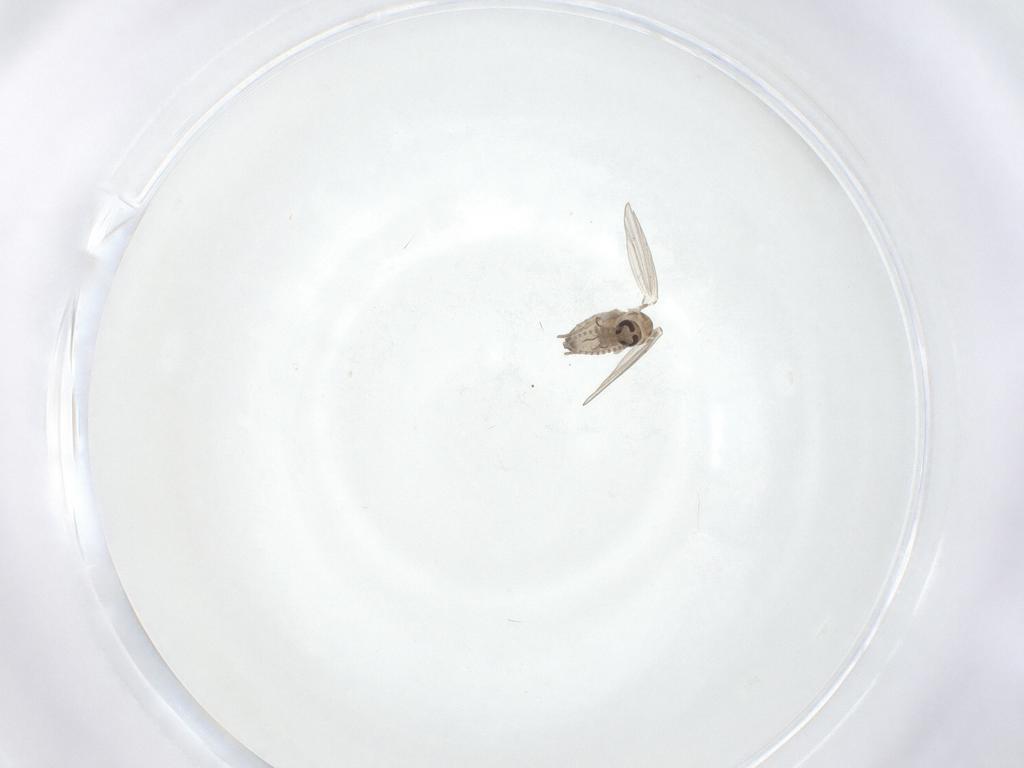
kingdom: Animalia
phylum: Arthropoda
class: Insecta
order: Diptera
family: Psychodidae
